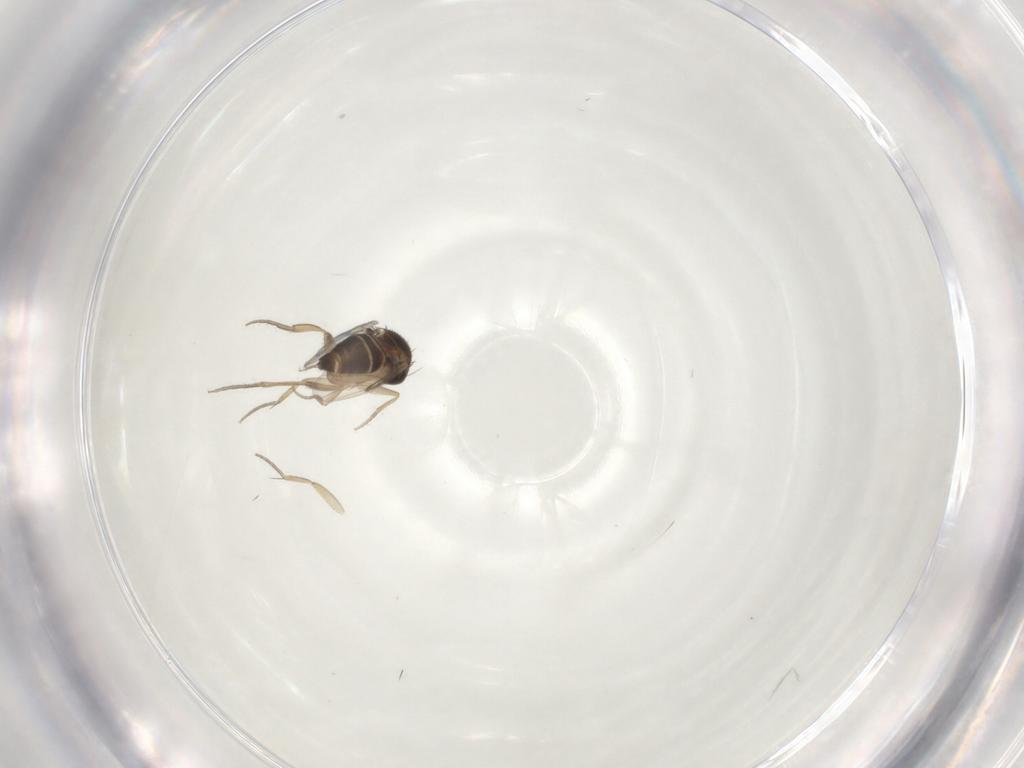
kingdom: Animalia
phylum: Arthropoda
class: Insecta
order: Diptera
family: Phoridae
